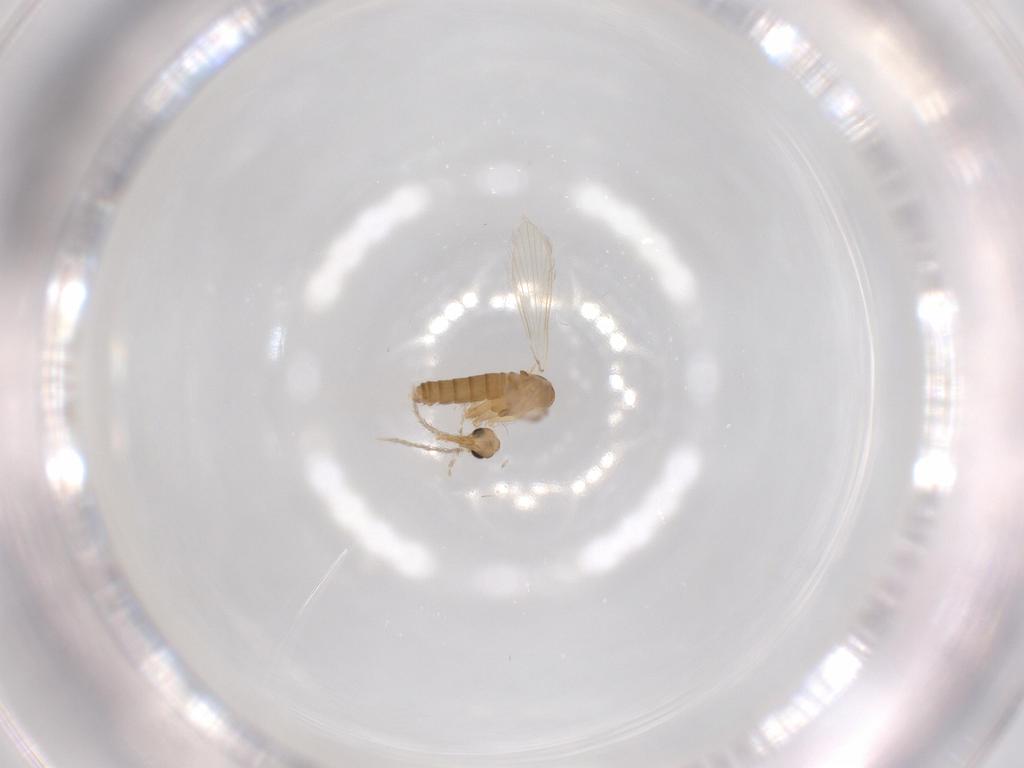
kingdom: Animalia
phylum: Arthropoda
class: Insecta
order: Diptera
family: Psychodidae
